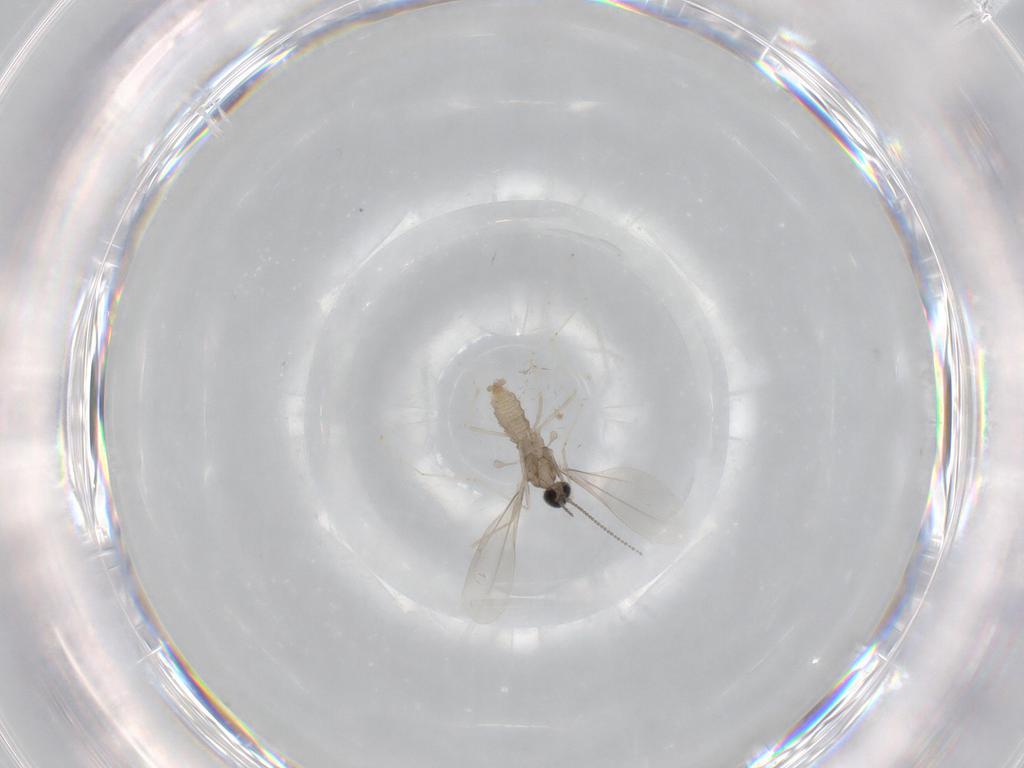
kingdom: Animalia
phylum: Arthropoda
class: Insecta
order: Diptera
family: Cecidomyiidae
